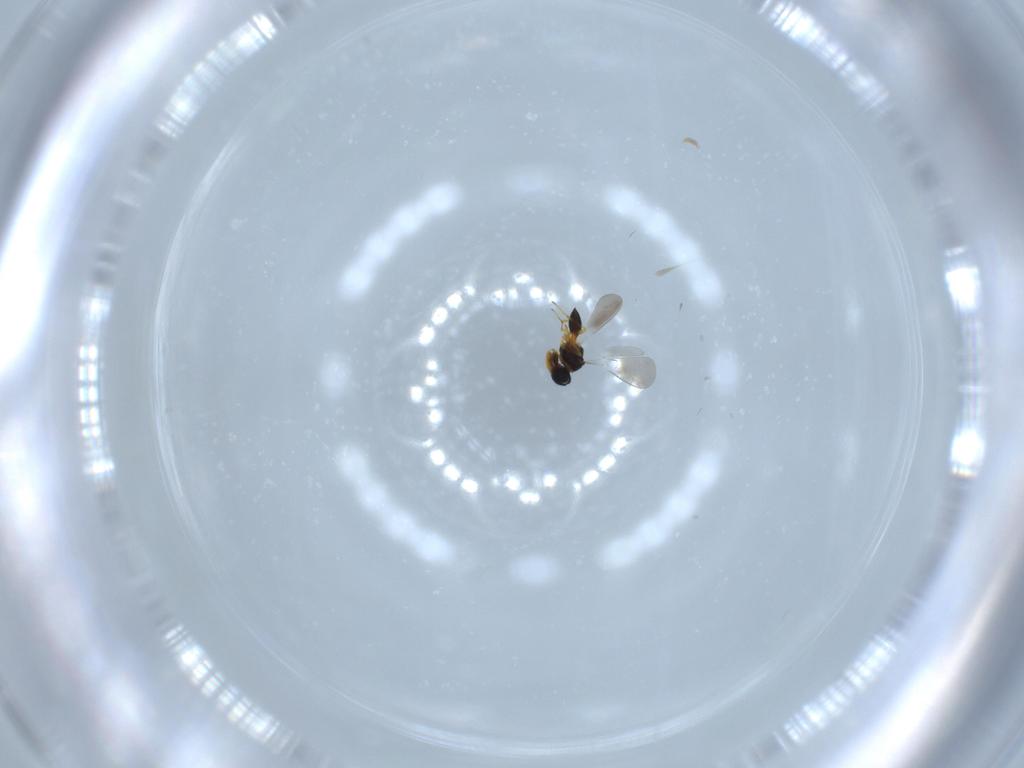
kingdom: Animalia
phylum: Arthropoda
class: Insecta
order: Hymenoptera
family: Platygastridae
